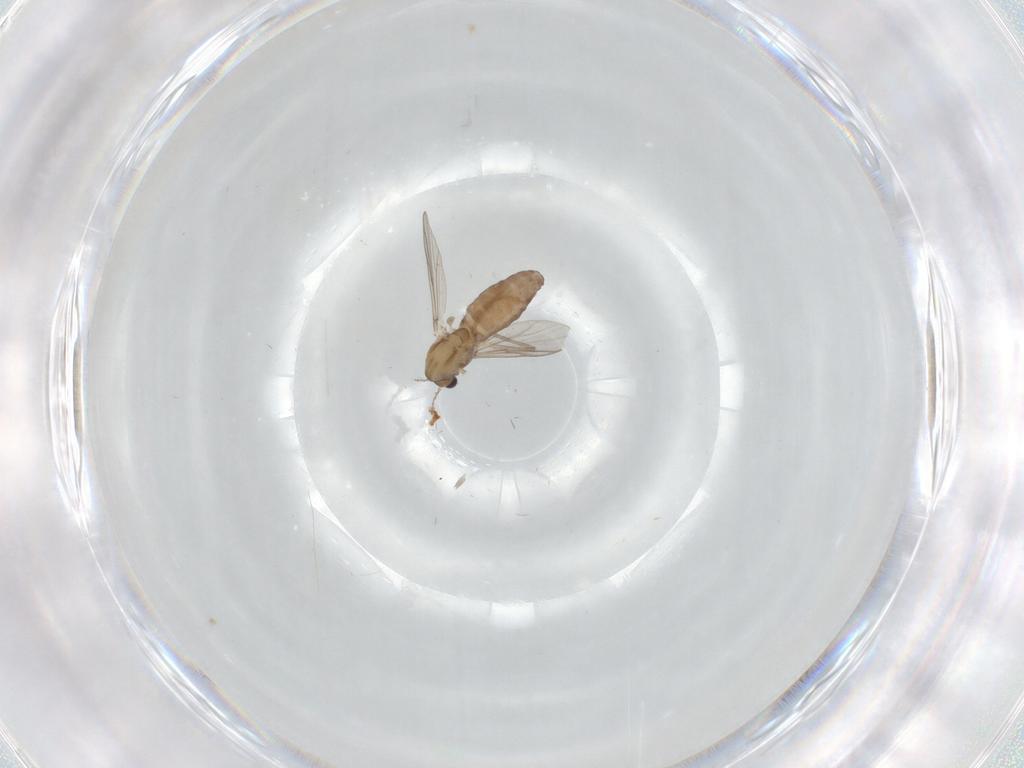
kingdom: Animalia
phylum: Arthropoda
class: Insecta
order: Diptera
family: Chironomidae
